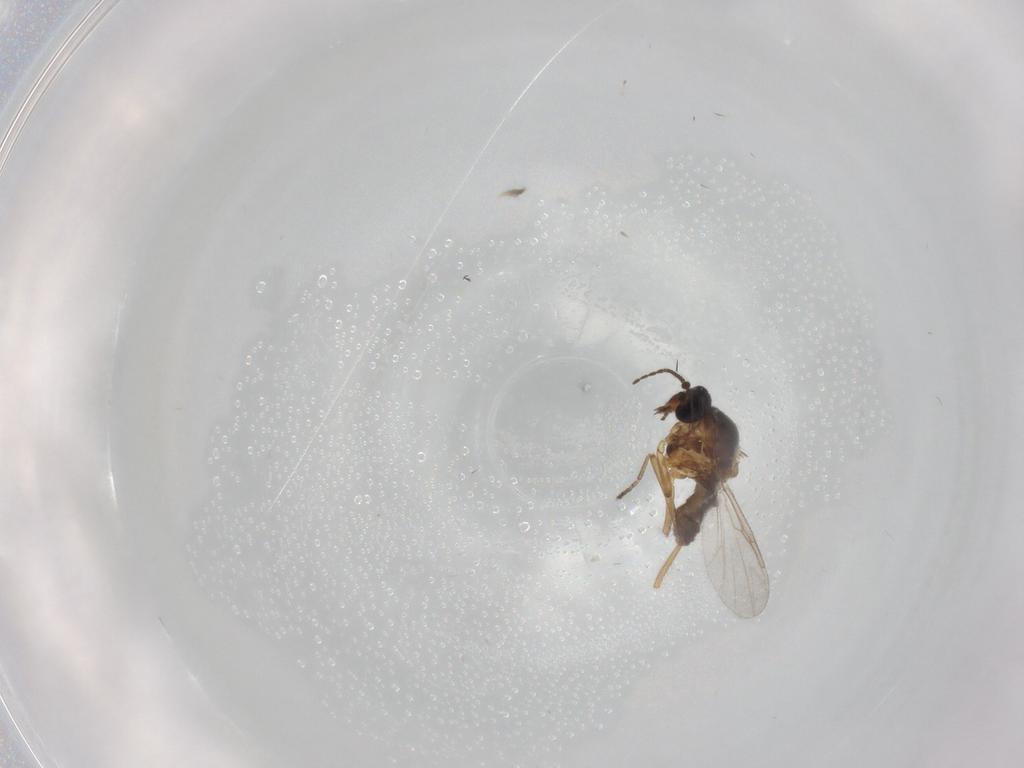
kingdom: Animalia
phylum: Arthropoda
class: Insecta
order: Diptera
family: Ceratopogonidae
